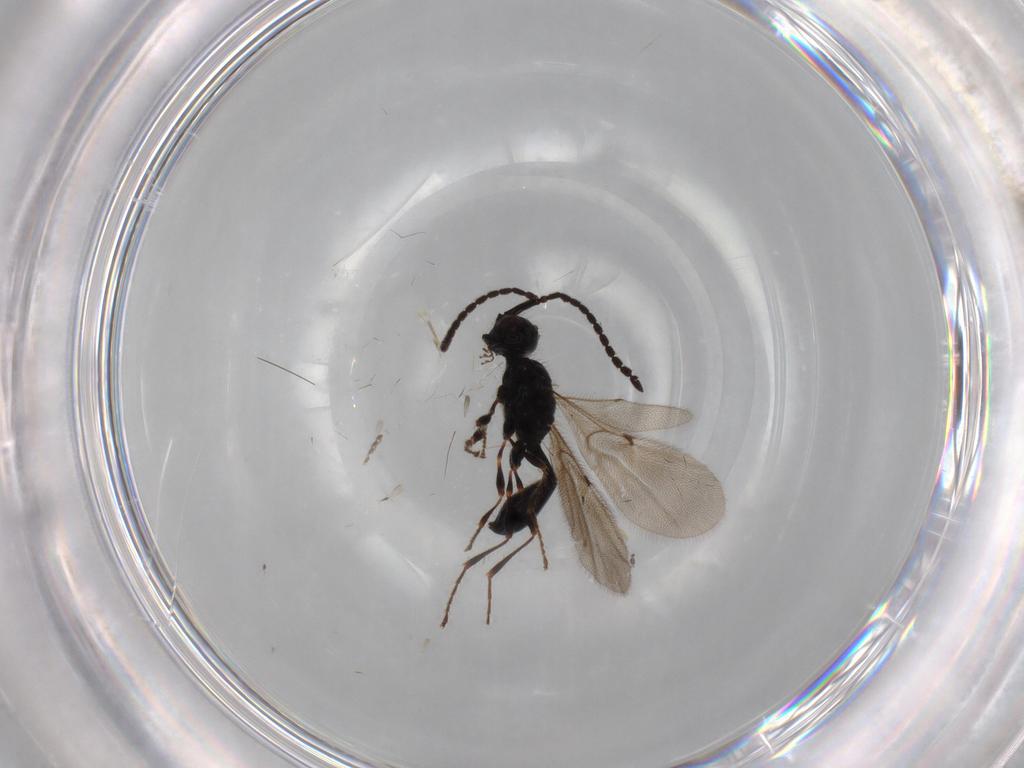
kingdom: Animalia
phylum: Arthropoda
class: Insecta
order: Hymenoptera
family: Diapriidae
